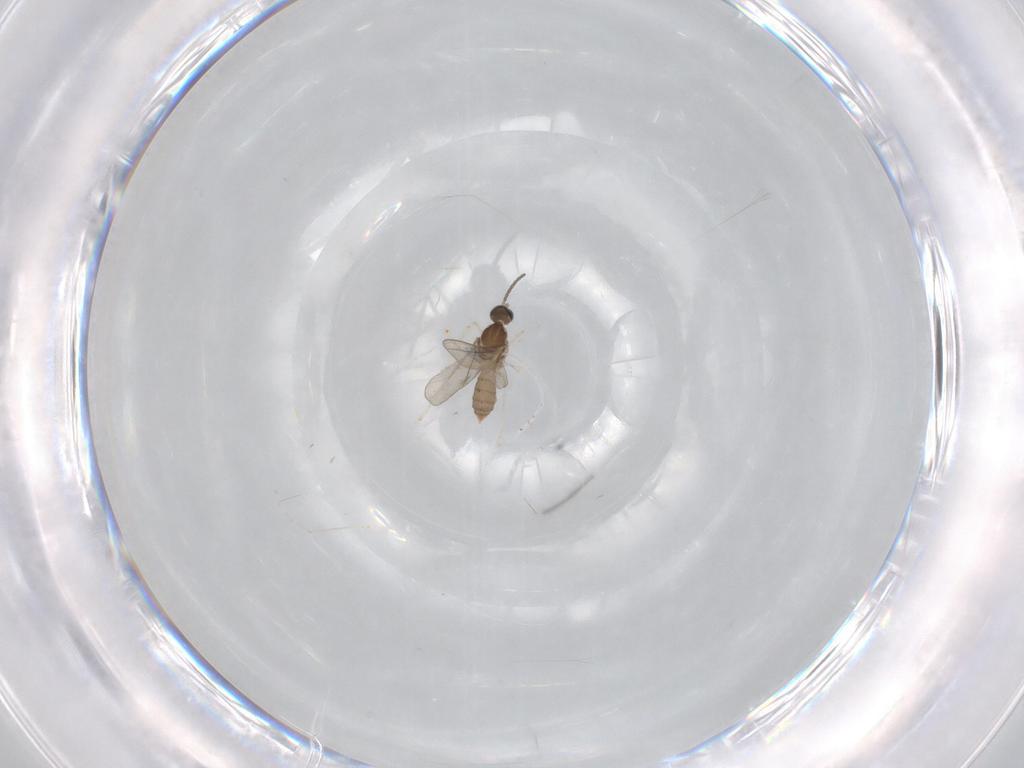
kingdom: Animalia
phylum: Arthropoda
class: Insecta
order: Diptera
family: Cecidomyiidae
